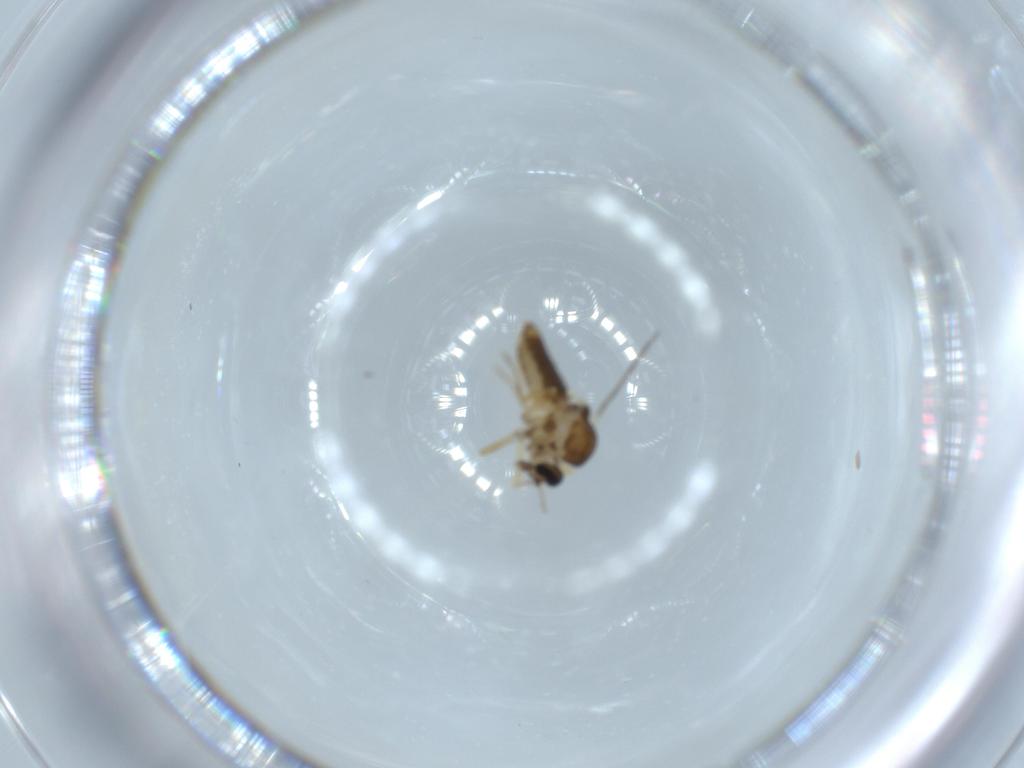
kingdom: Animalia
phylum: Arthropoda
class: Insecta
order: Diptera
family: Ceratopogonidae
